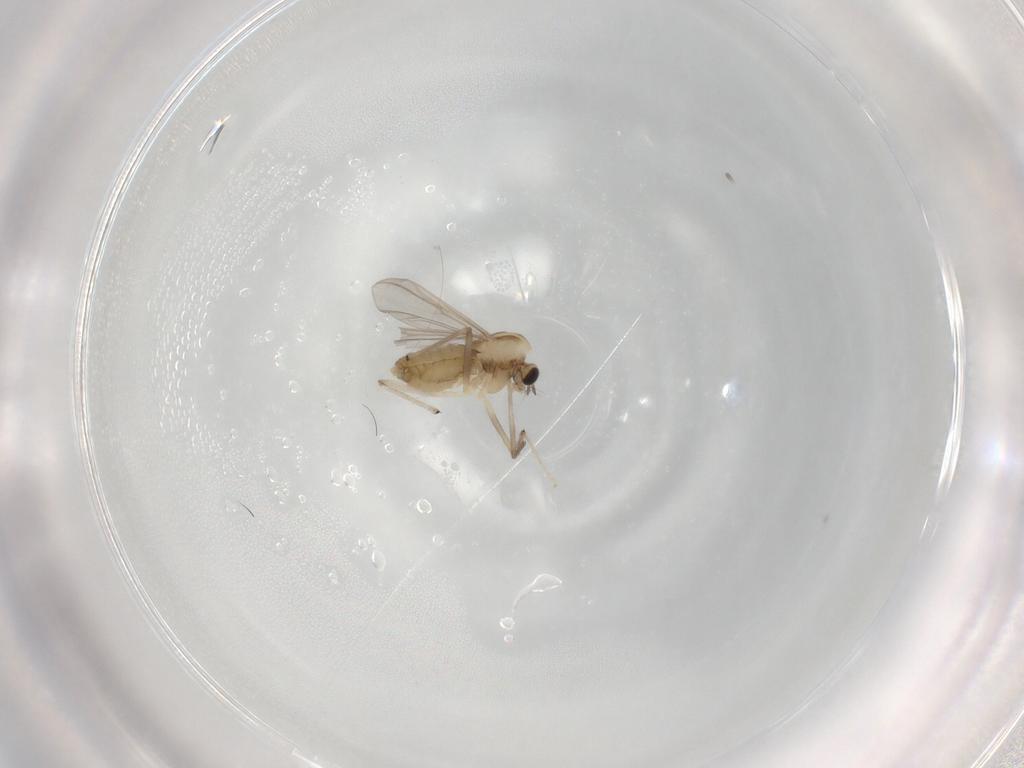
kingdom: Animalia
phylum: Arthropoda
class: Insecta
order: Diptera
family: Chironomidae
